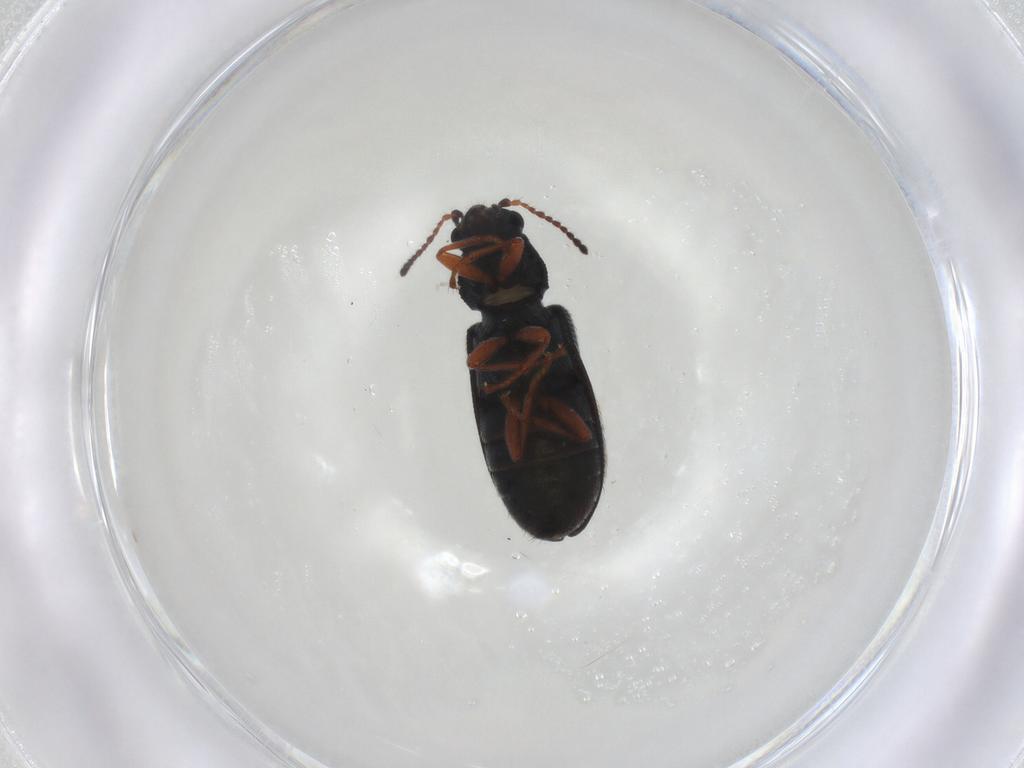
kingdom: Animalia
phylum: Arthropoda
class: Insecta
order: Coleoptera
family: Melyridae
